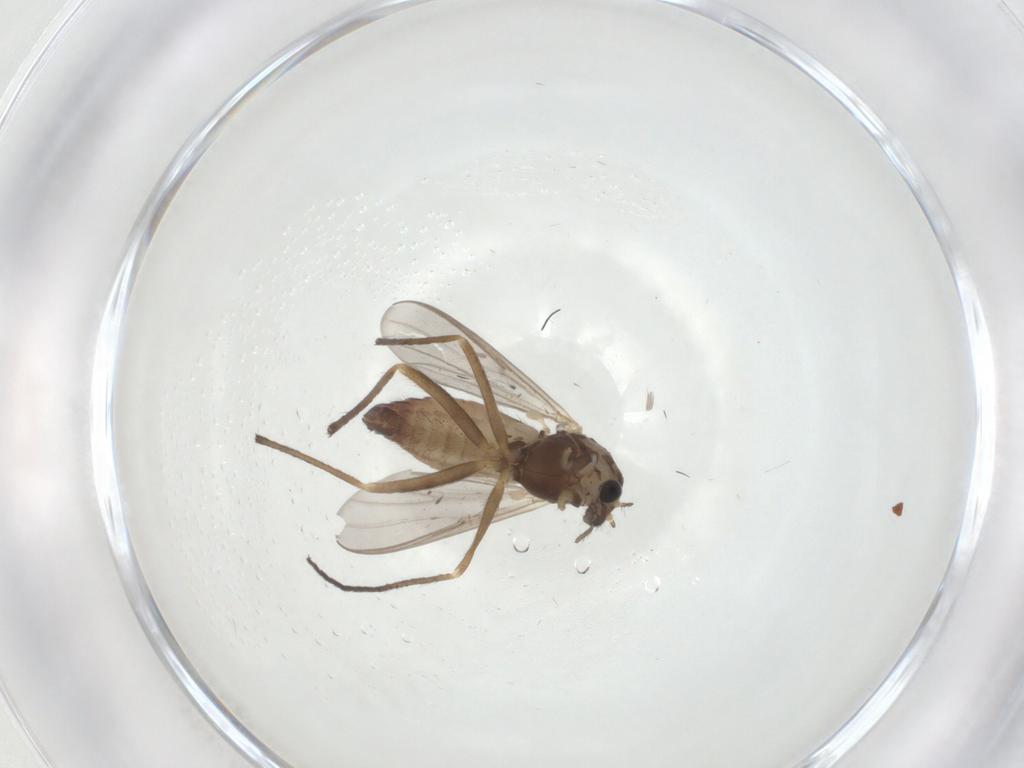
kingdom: Animalia
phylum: Arthropoda
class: Insecta
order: Diptera
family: Chironomidae
